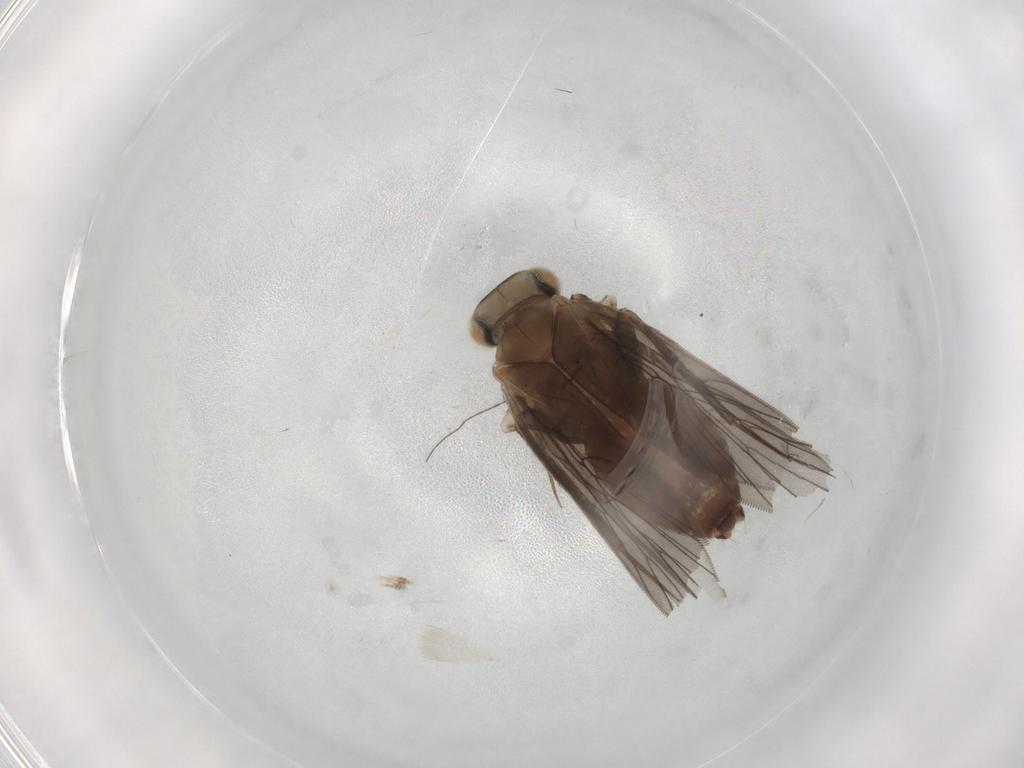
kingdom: Animalia
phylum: Arthropoda
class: Insecta
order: Psocodea
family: Lepidopsocidae
